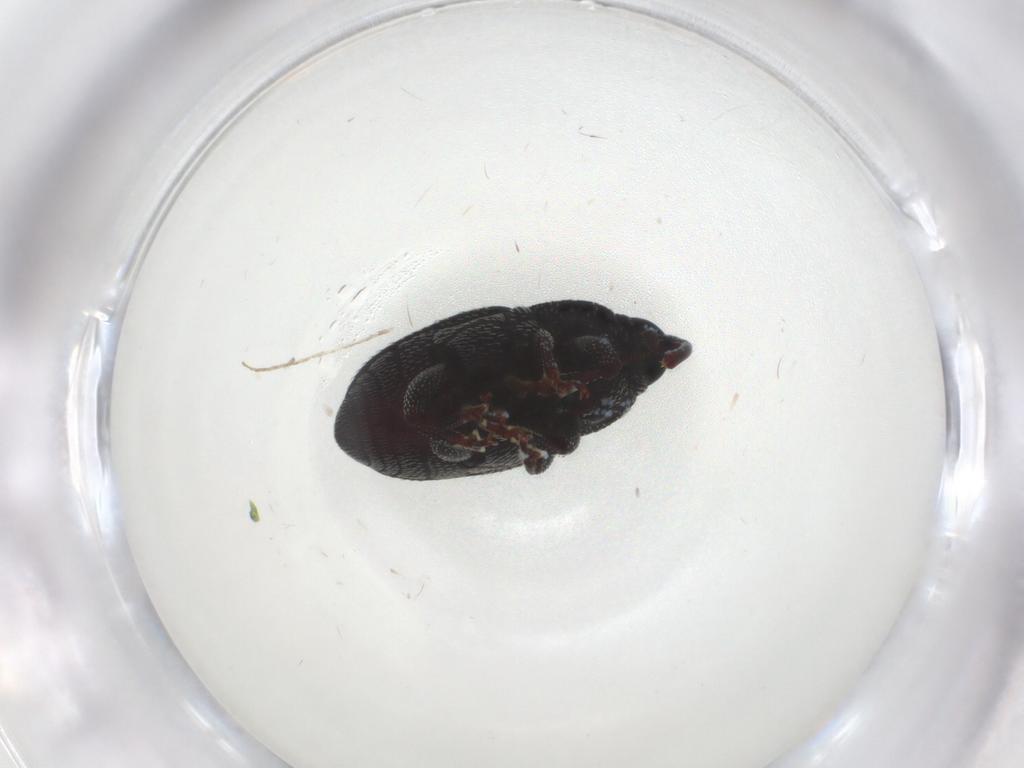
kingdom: Animalia
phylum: Arthropoda
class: Insecta
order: Coleoptera
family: Curculionidae
